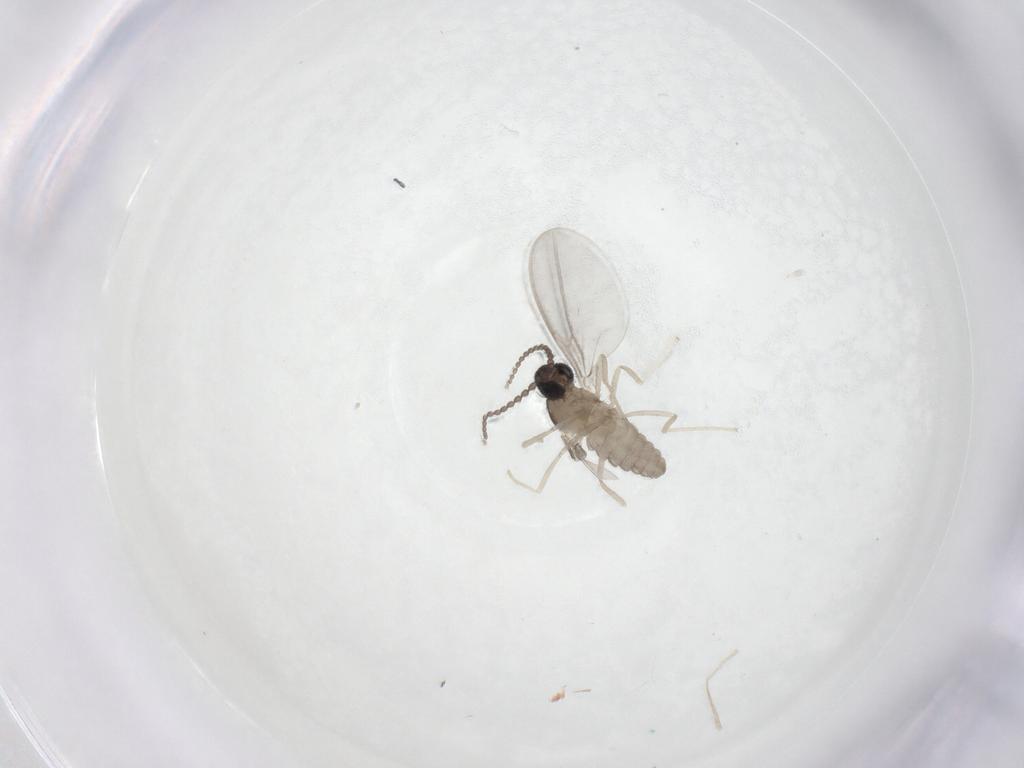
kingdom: Animalia
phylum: Arthropoda
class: Insecta
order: Diptera
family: Cecidomyiidae
